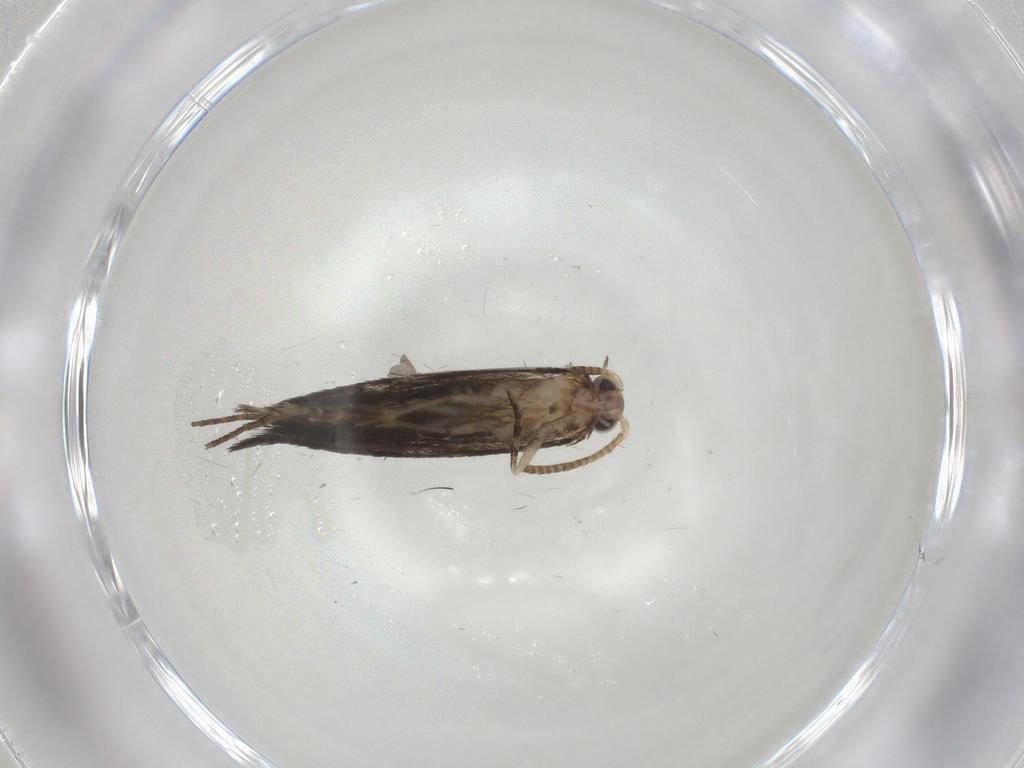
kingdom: Animalia
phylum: Arthropoda
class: Insecta
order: Lepidoptera
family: Tineidae
